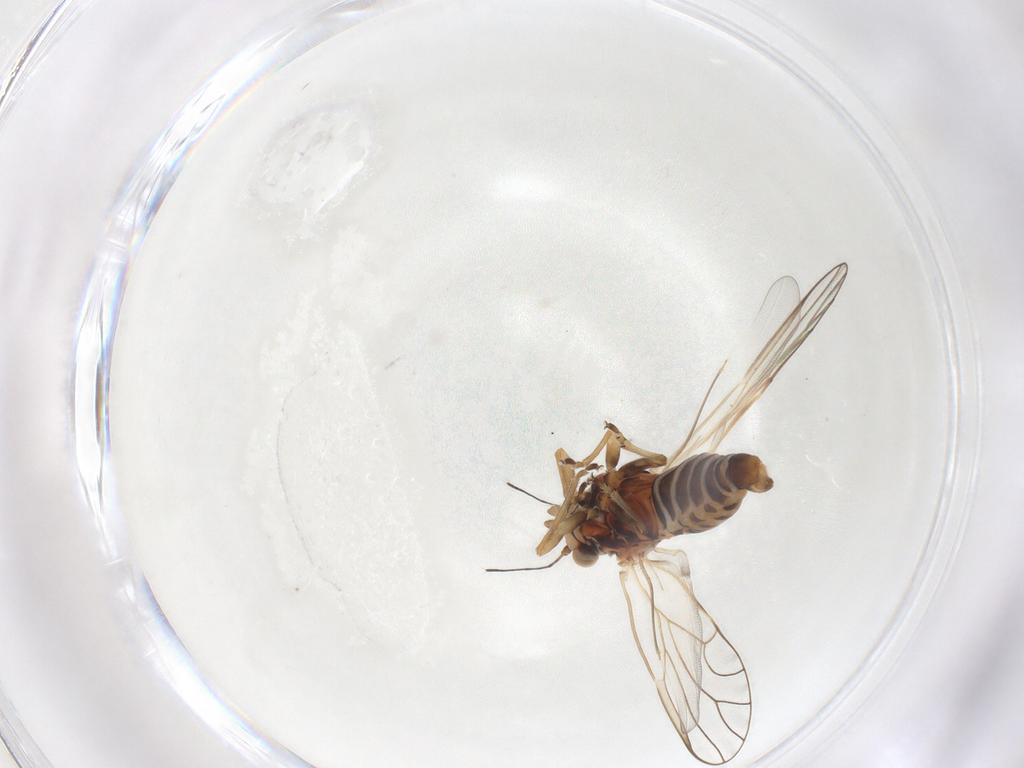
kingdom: Animalia
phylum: Arthropoda
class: Insecta
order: Hemiptera
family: Psyllidae
